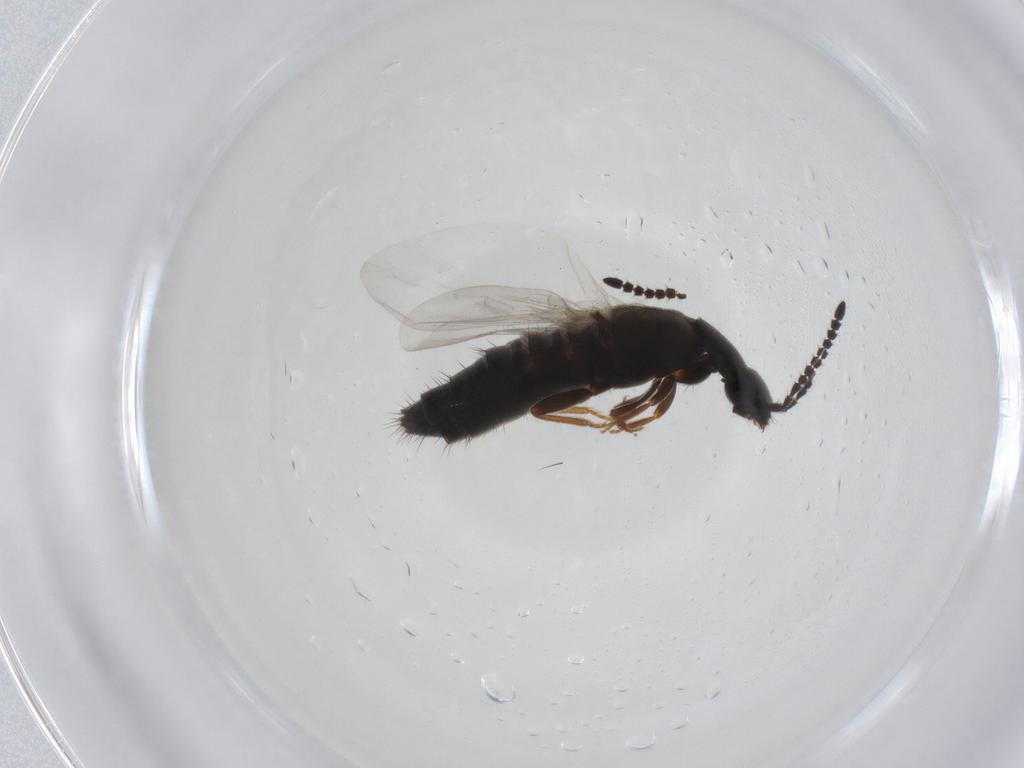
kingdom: Animalia
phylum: Arthropoda
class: Insecta
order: Coleoptera
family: Staphylinidae
